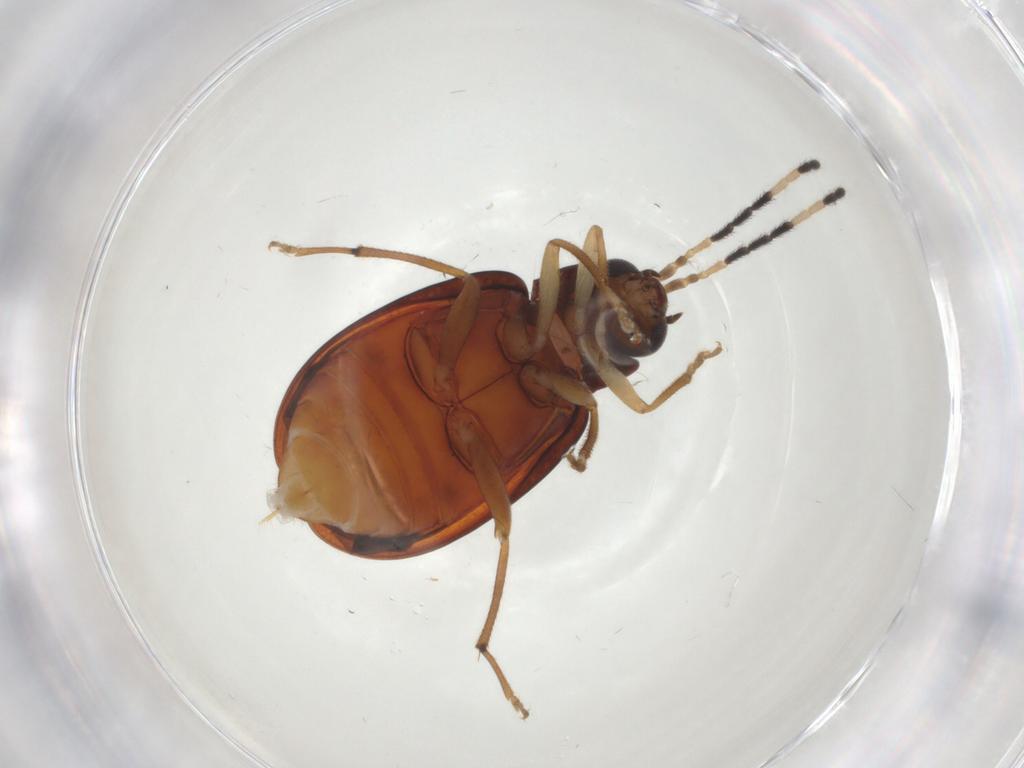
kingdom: Animalia
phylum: Arthropoda
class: Insecta
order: Coleoptera
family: Chrysomelidae
